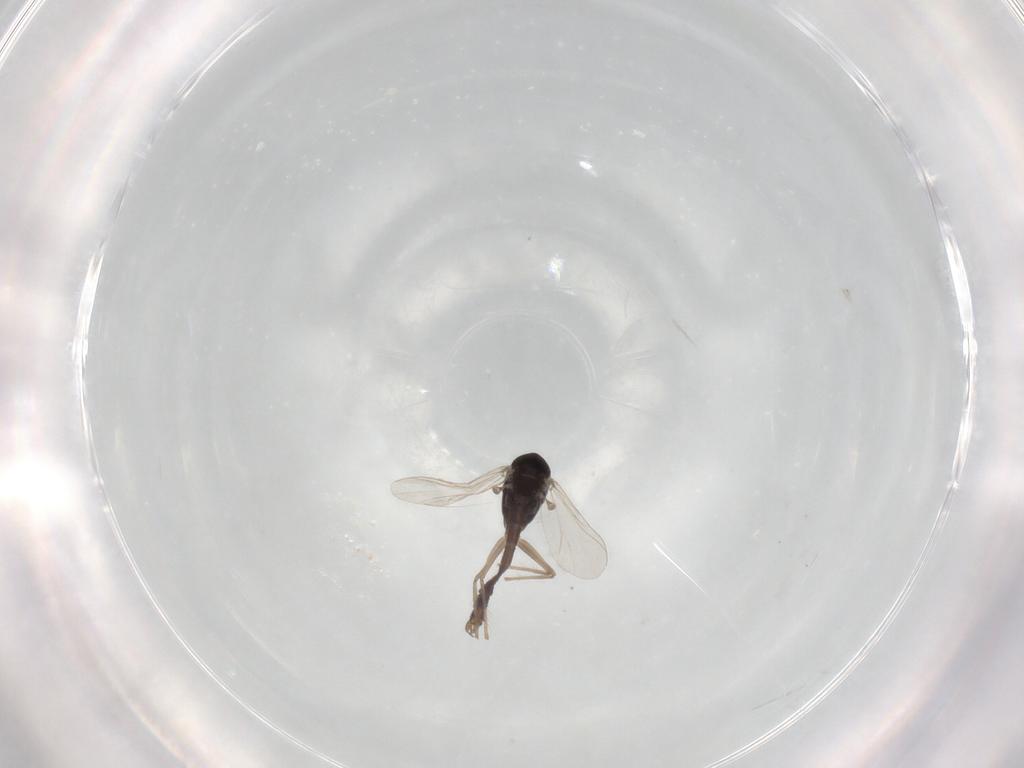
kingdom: Animalia
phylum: Arthropoda
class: Insecta
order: Diptera
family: Chironomidae
